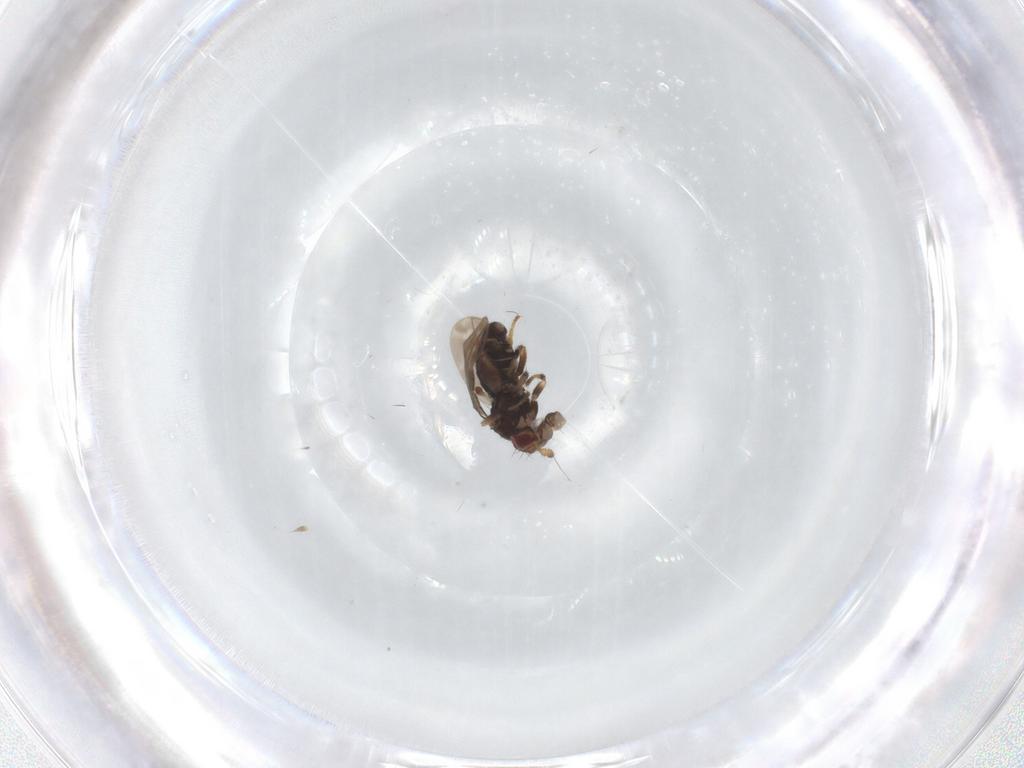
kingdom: Animalia
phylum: Arthropoda
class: Insecta
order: Diptera
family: Sphaeroceridae
